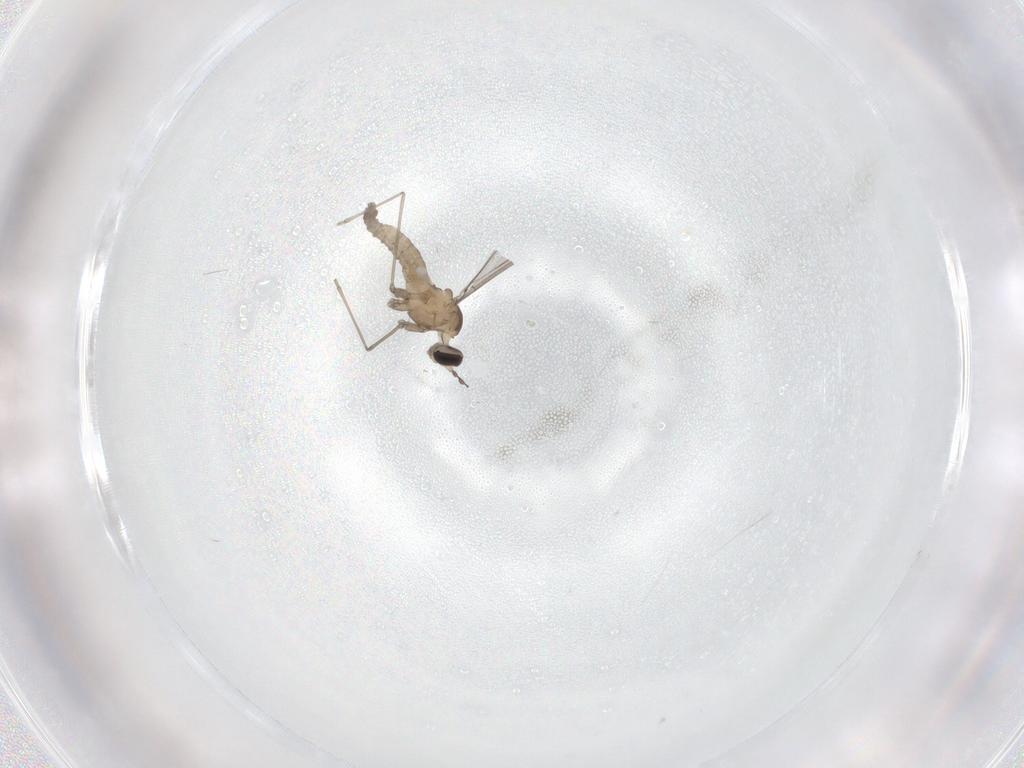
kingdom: Animalia
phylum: Arthropoda
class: Insecta
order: Diptera
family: Cecidomyiidae
